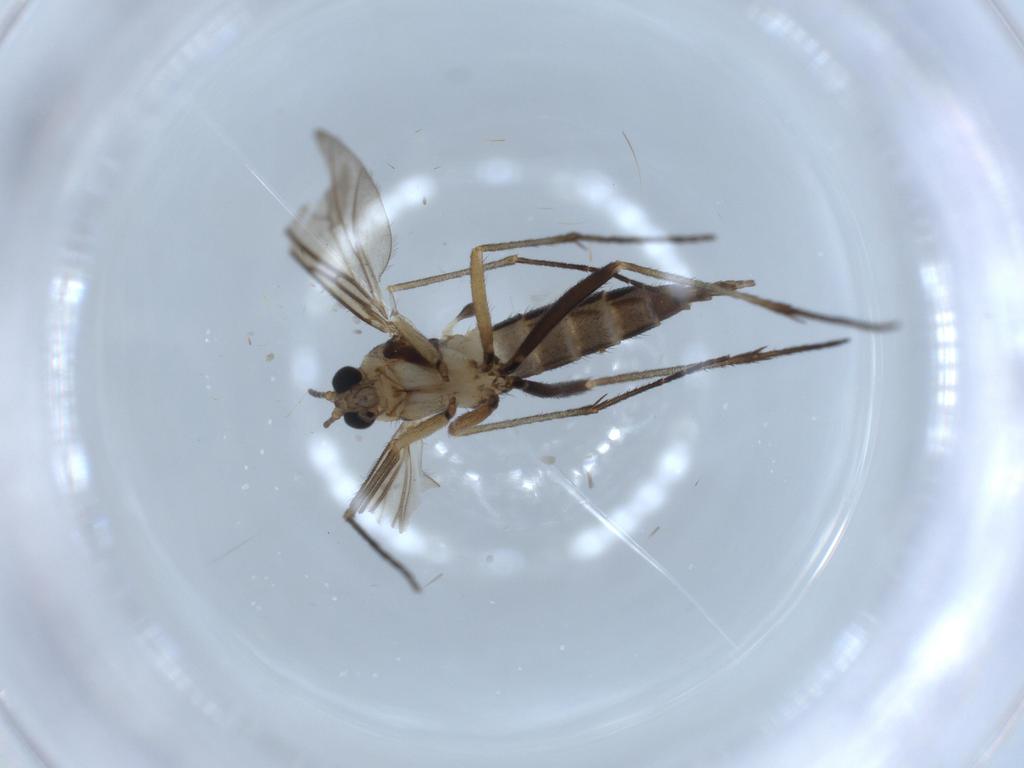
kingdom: Animalia
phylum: Arthropoda
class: Insecta
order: Diptera
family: Sciaridae
